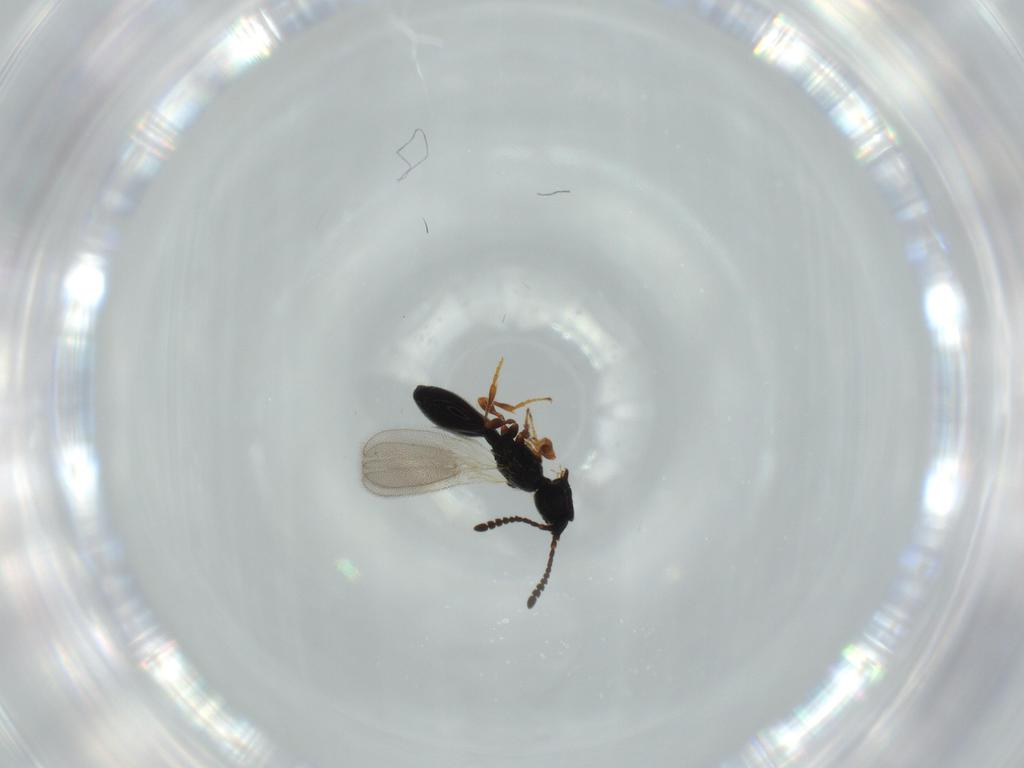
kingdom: Animalia
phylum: Arthropoda
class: Insecta
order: Hymenoptera
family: Diapriidae
